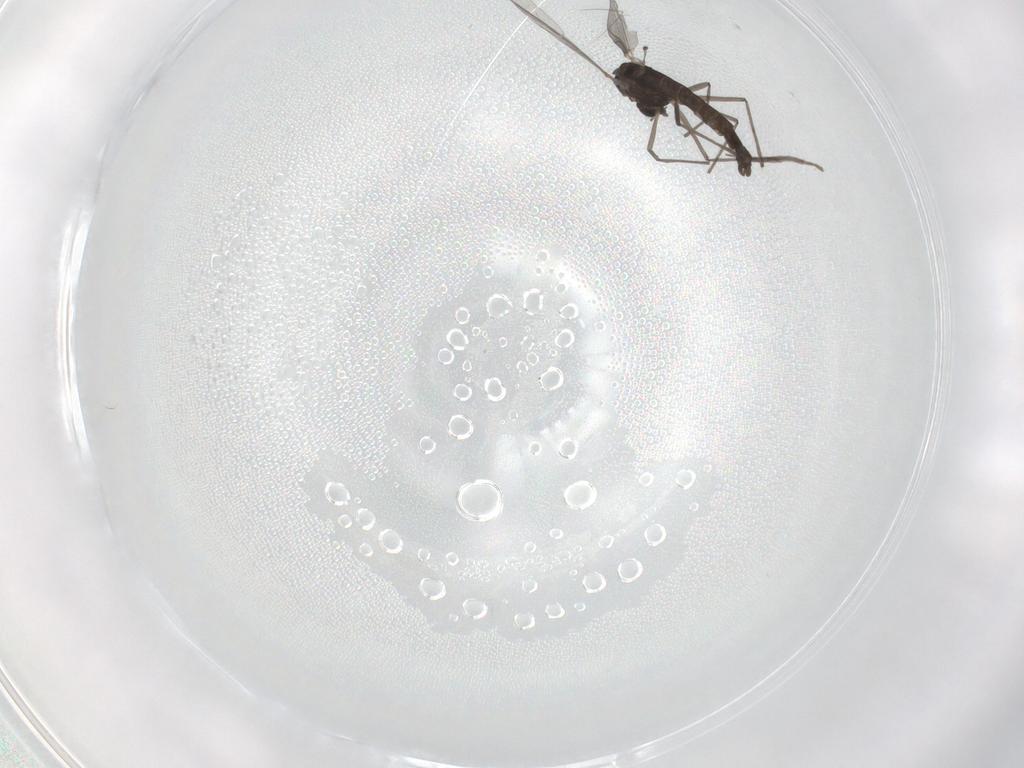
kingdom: Animalia
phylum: Arthropoda
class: Insecta
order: Diptera
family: Chironomidae
